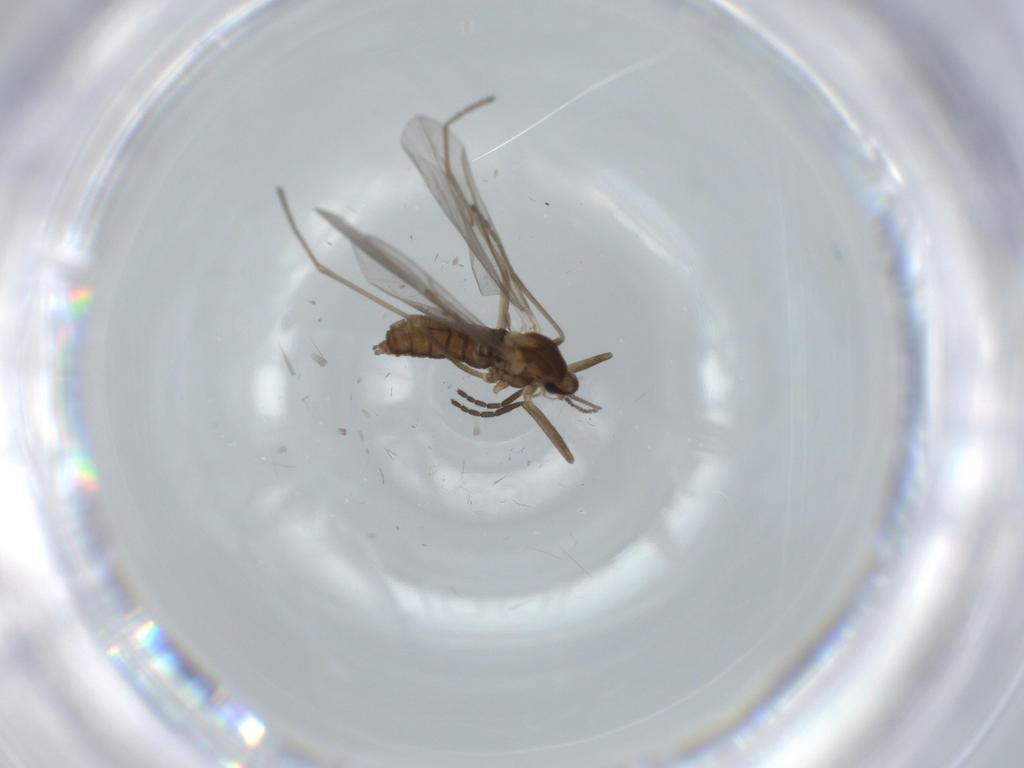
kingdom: Animalia
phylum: Arthropoda
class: Insecta
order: Diptera
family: Cecidomyiidae
